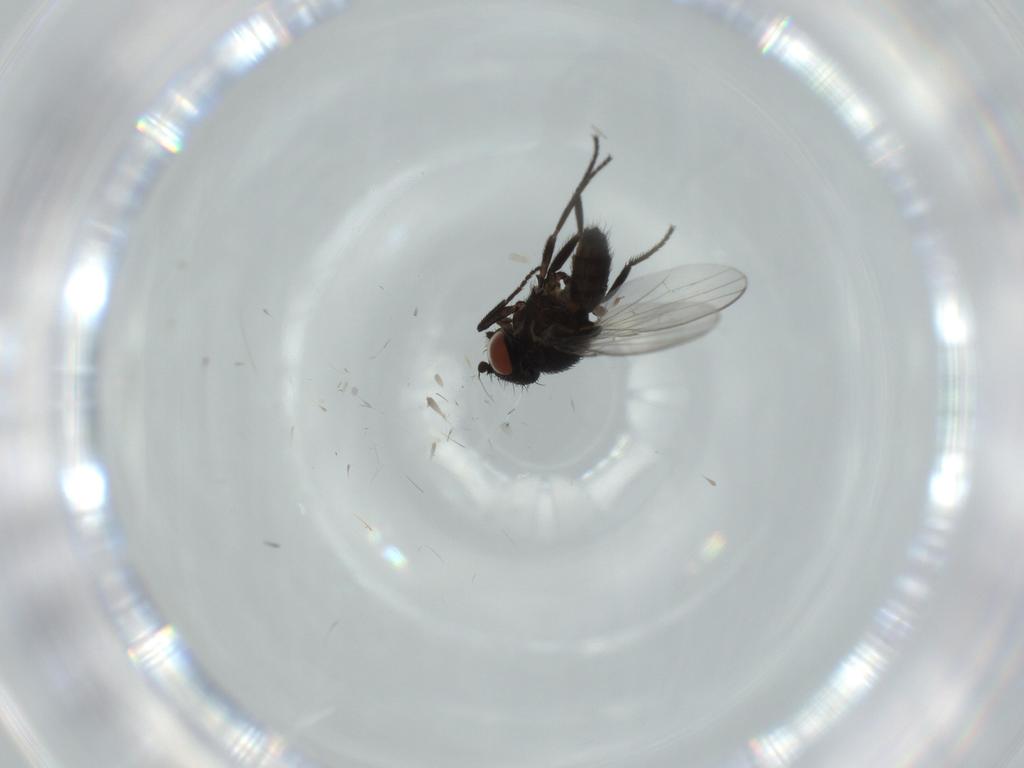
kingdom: Animalia
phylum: Arthropoda
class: Insecta
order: Diptera
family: Milichiidae
